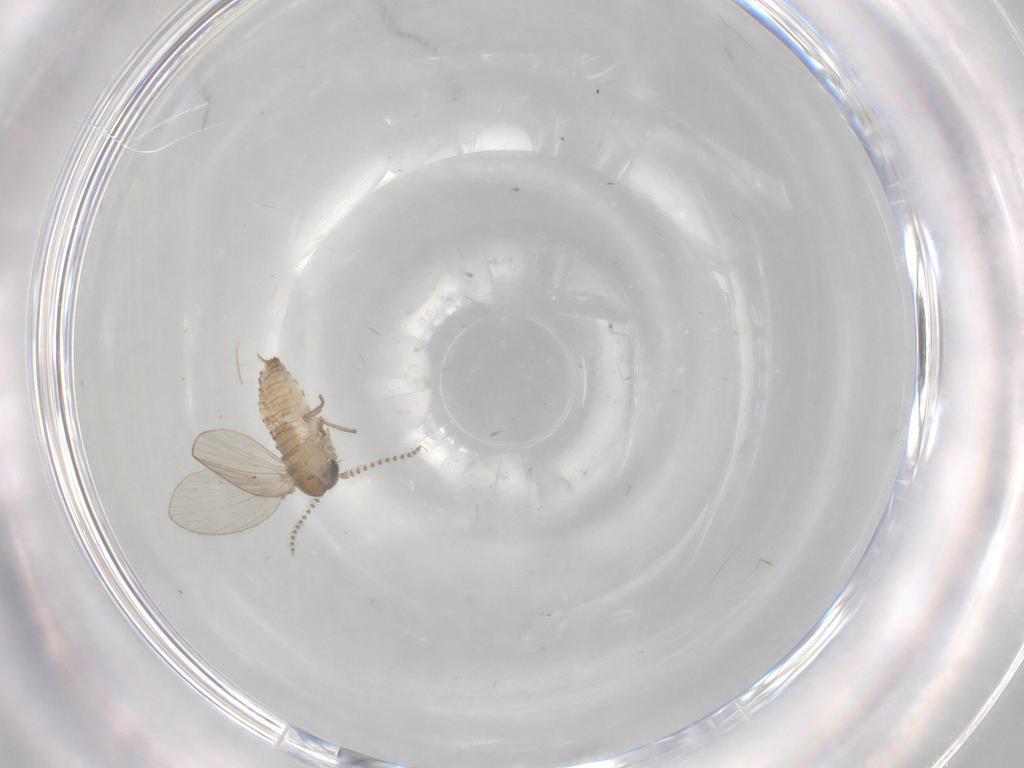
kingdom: Animalia
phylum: Arthropoda
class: Insecta
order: Diptera
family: Psychodidae
